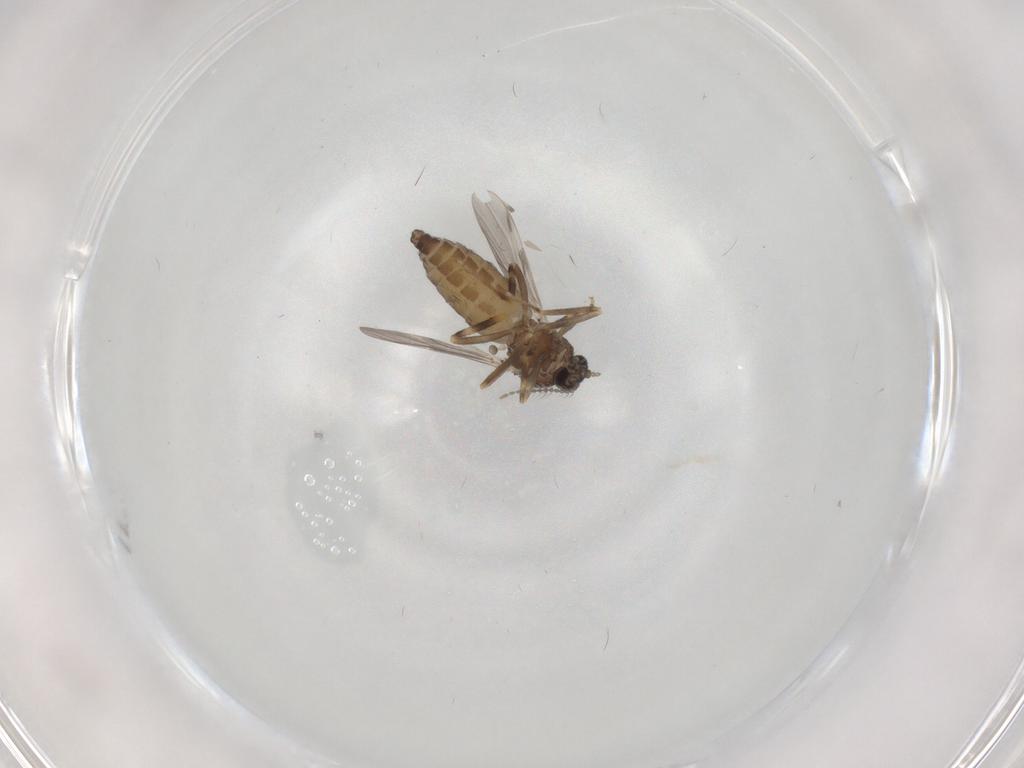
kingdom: Animalia
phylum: Arthropoda
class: Insecta
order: Diptera
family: Ceratopogonidae
